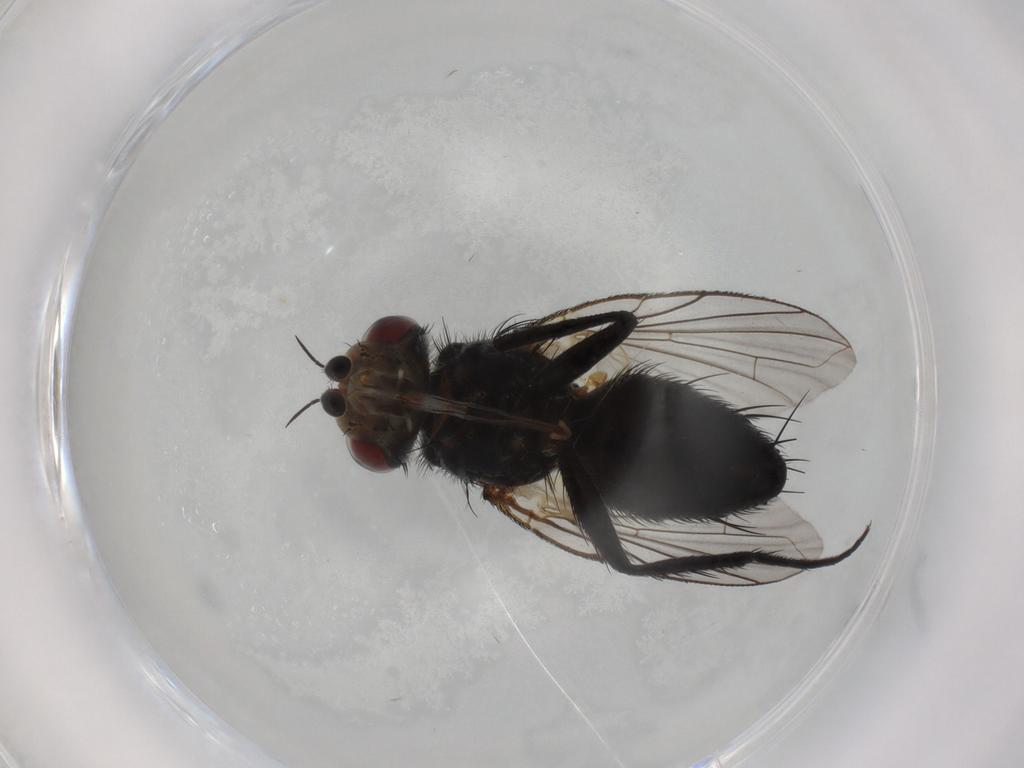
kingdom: Animalia
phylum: Arthropoda
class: Insecta
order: Diptera
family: Tachinidae
